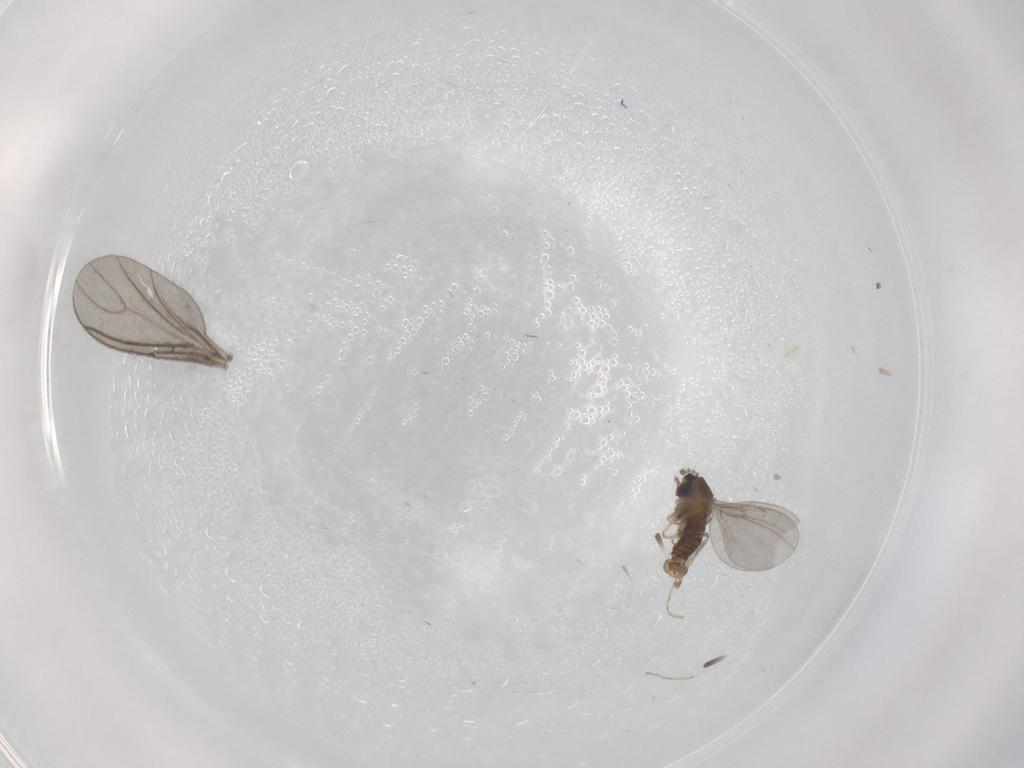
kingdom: Animalia
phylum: Arthropoda
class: Insecta
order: Diptera
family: Cecidomyiidae
